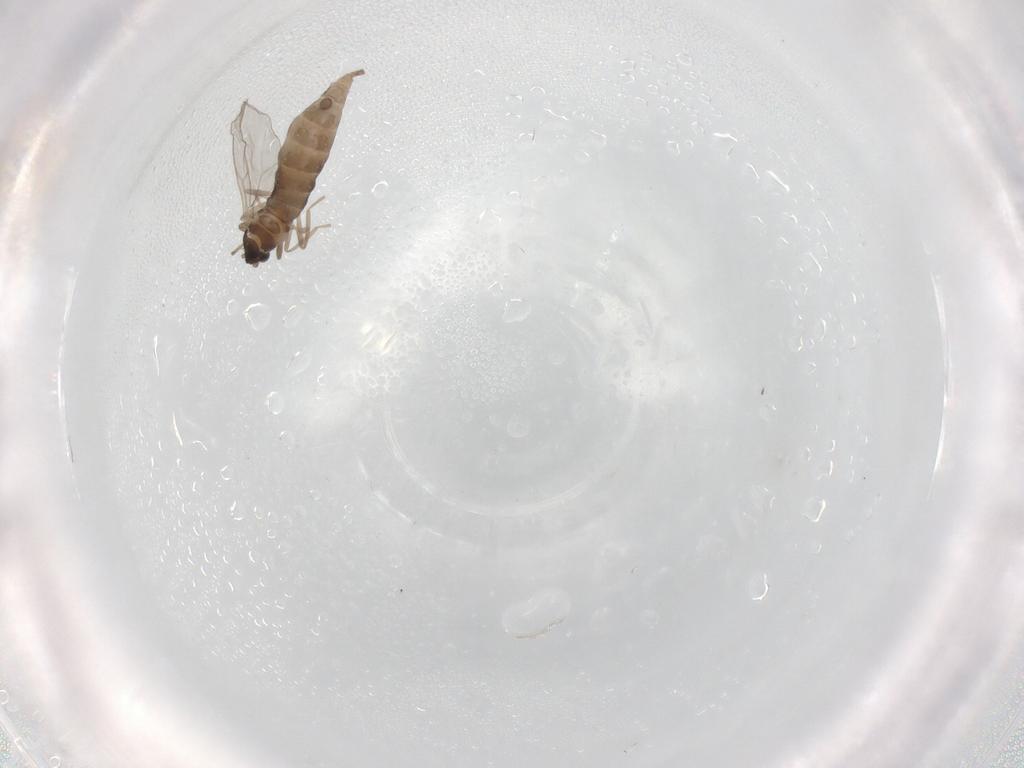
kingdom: Animalia
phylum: Arthropoda
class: Insecta
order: Diptera
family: Cecidomyiidae
